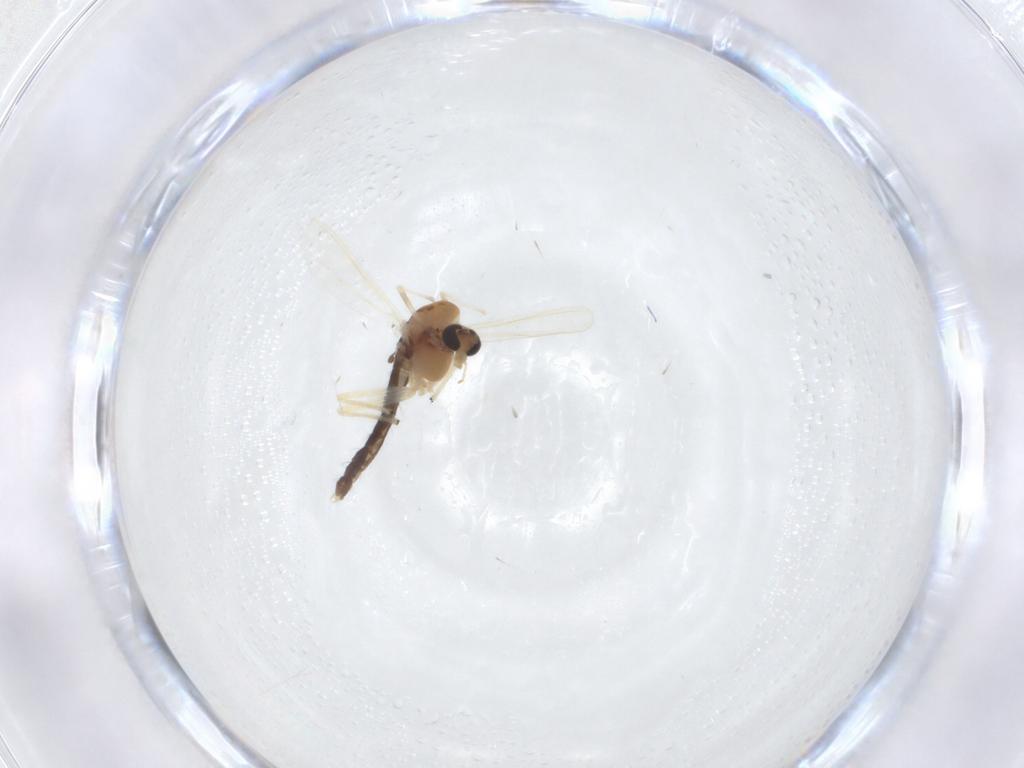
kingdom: Animalia
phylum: Arthropoda
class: Insecta
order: Diptera
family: Chironomidae
